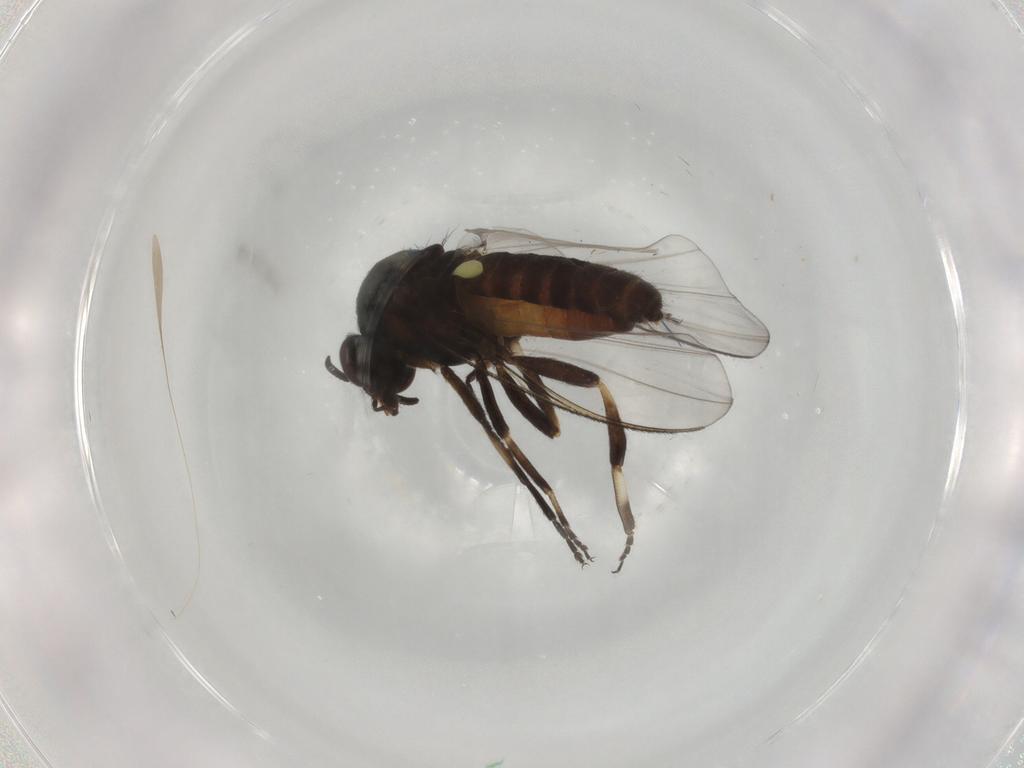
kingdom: Animalia
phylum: Arthropoda
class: Insecta
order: Diptera
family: Simuliidae
